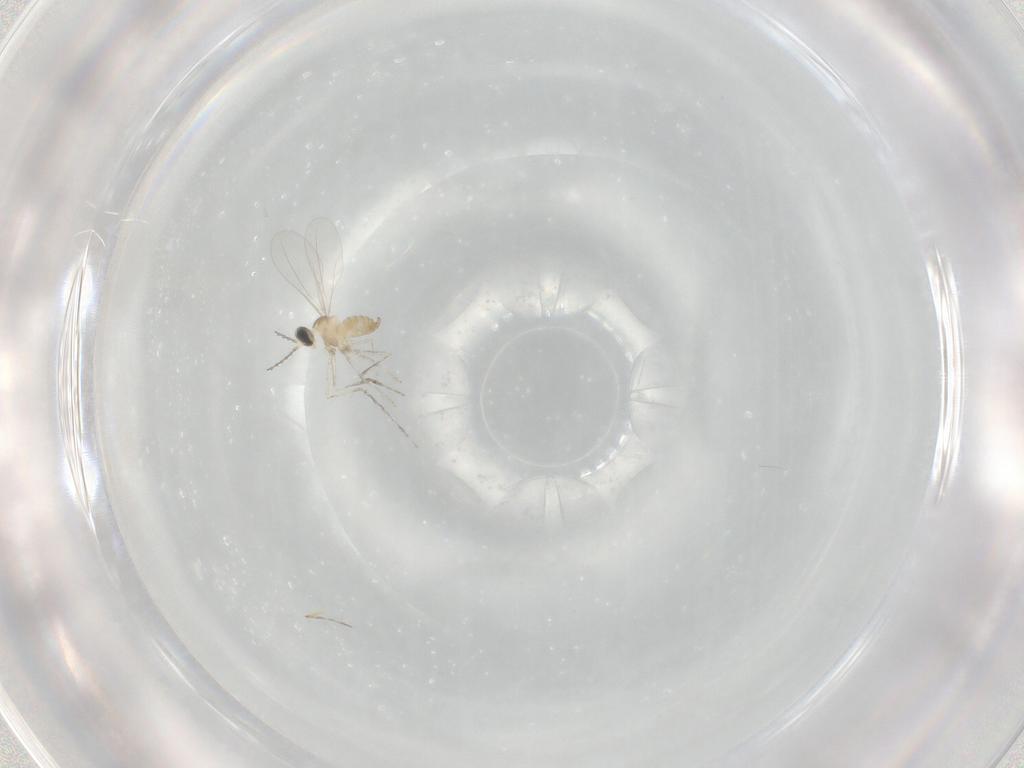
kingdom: Animalia
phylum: Arthropoda
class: Insecta
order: Diptera
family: Cecidomyiidae
